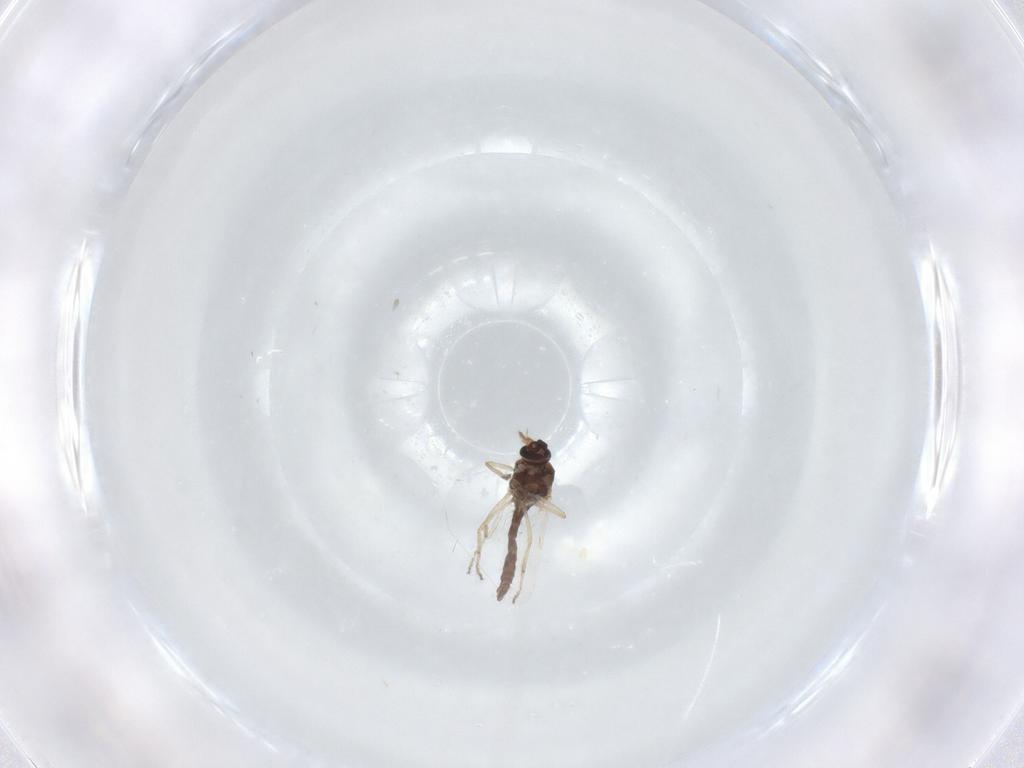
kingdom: Animalia
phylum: Arthropoda
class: Insecta
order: Diptera
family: Ceratopogonidae
